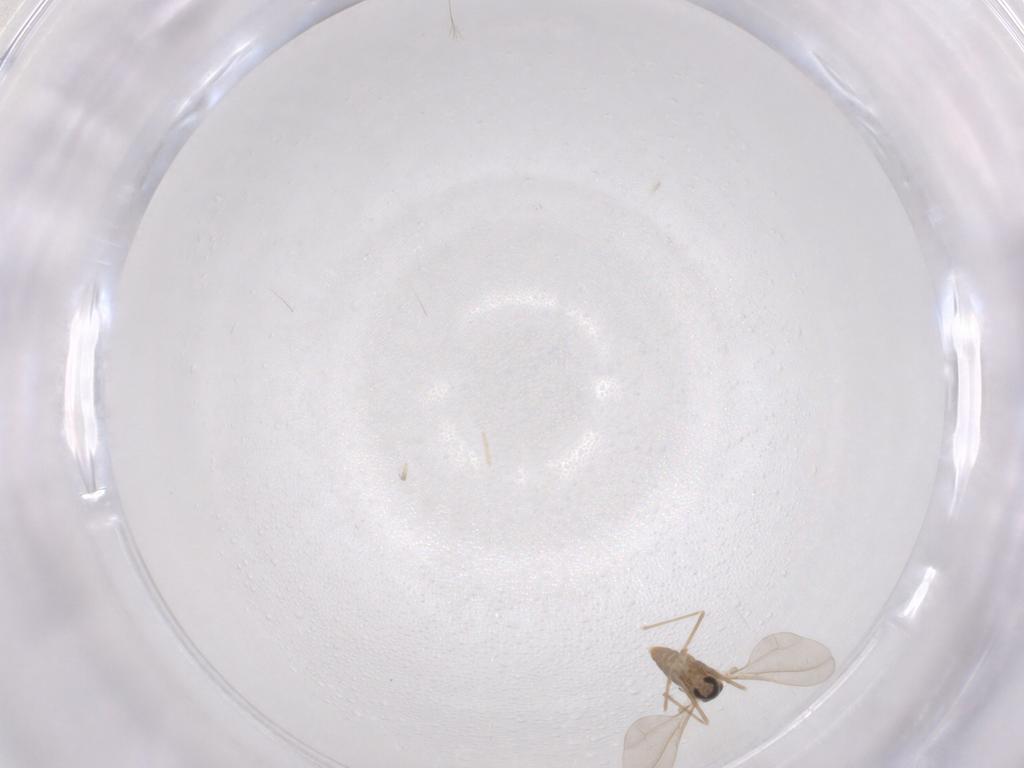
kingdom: Animalia
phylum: Arthropoda
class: Insecta
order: Diptera
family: Cecidomyiidae
